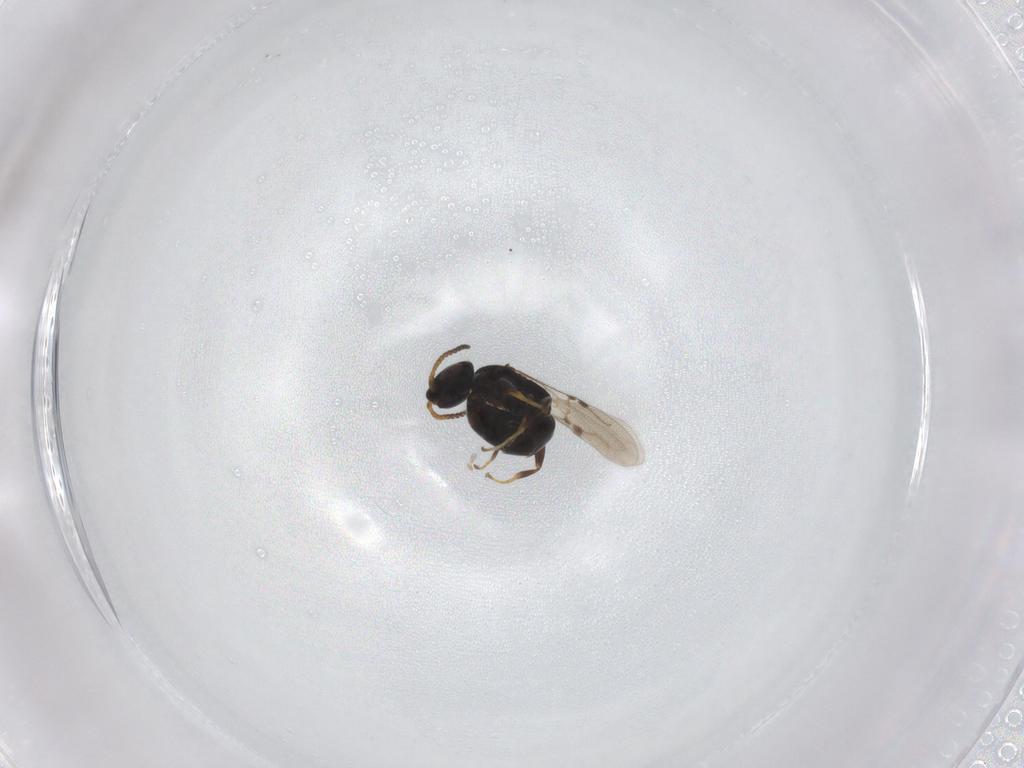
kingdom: Animalia
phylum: Arthropoda
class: Insecta
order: Hymenoptera
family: Bethylidae
